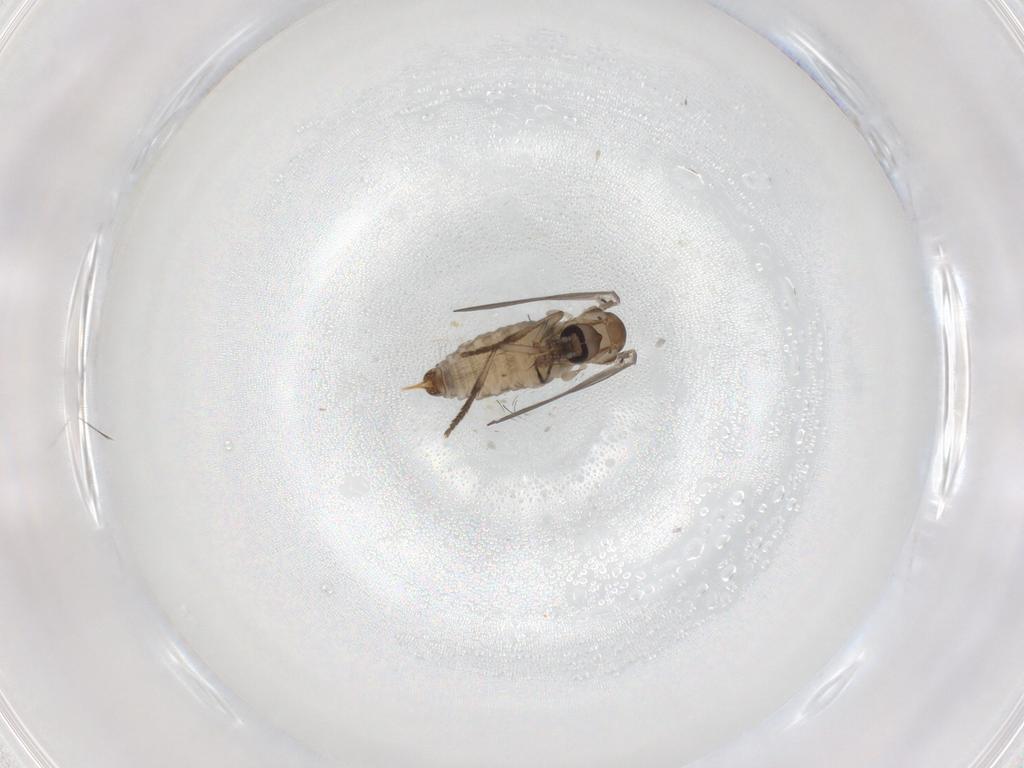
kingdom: Animalia
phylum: Arthropoda
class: Insecta
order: Diptera
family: Psychodidae
